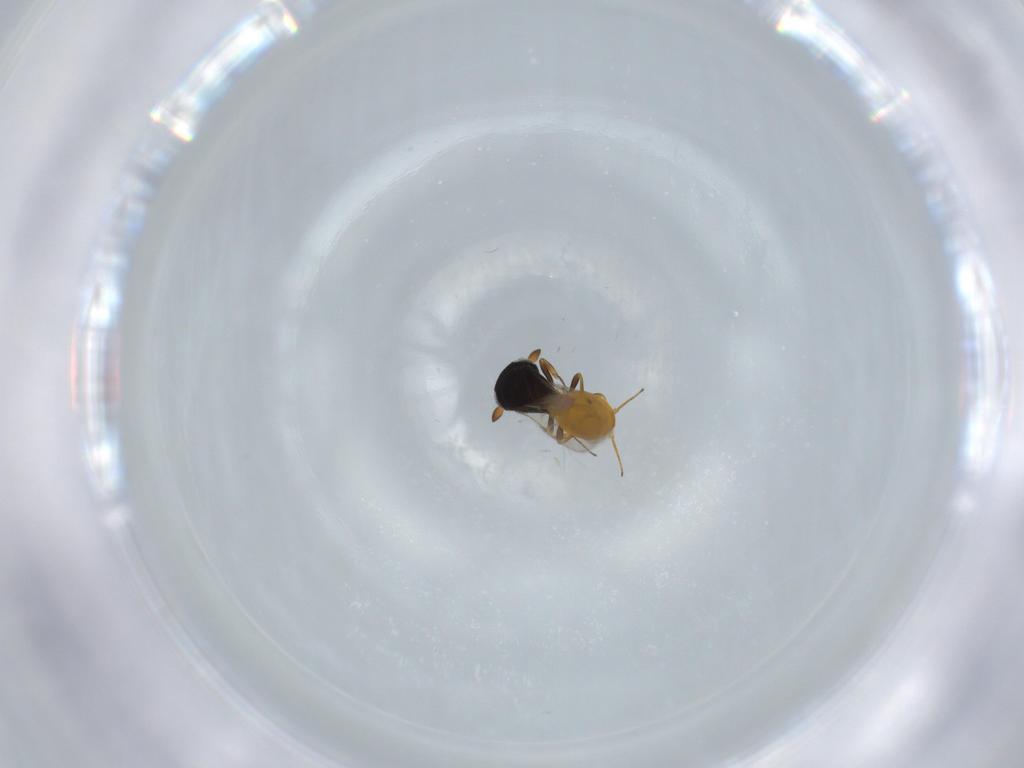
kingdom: Animalia
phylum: Arthropoda
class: Insecta
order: Hymenoptera
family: Scelionidae
